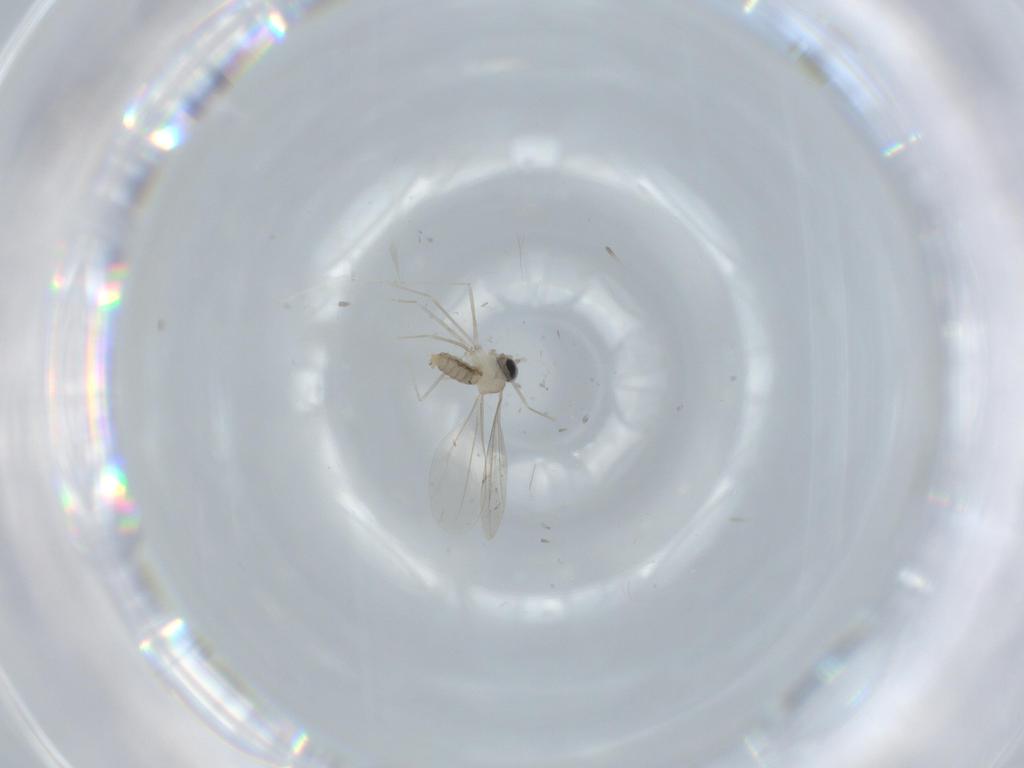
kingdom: Animalia
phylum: Arthropoda
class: Insecta
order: Diptera
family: Cecidomyiidae
